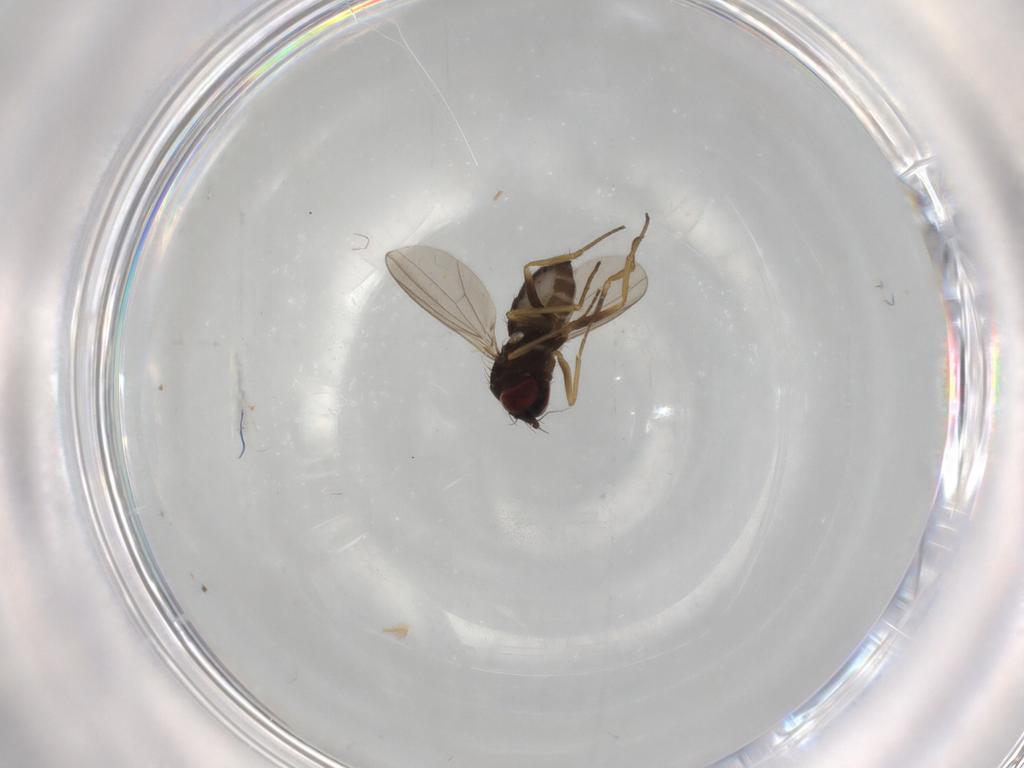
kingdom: Animalia
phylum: Arthropoda
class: Insecta
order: Diptera
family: Dolichopodidae
